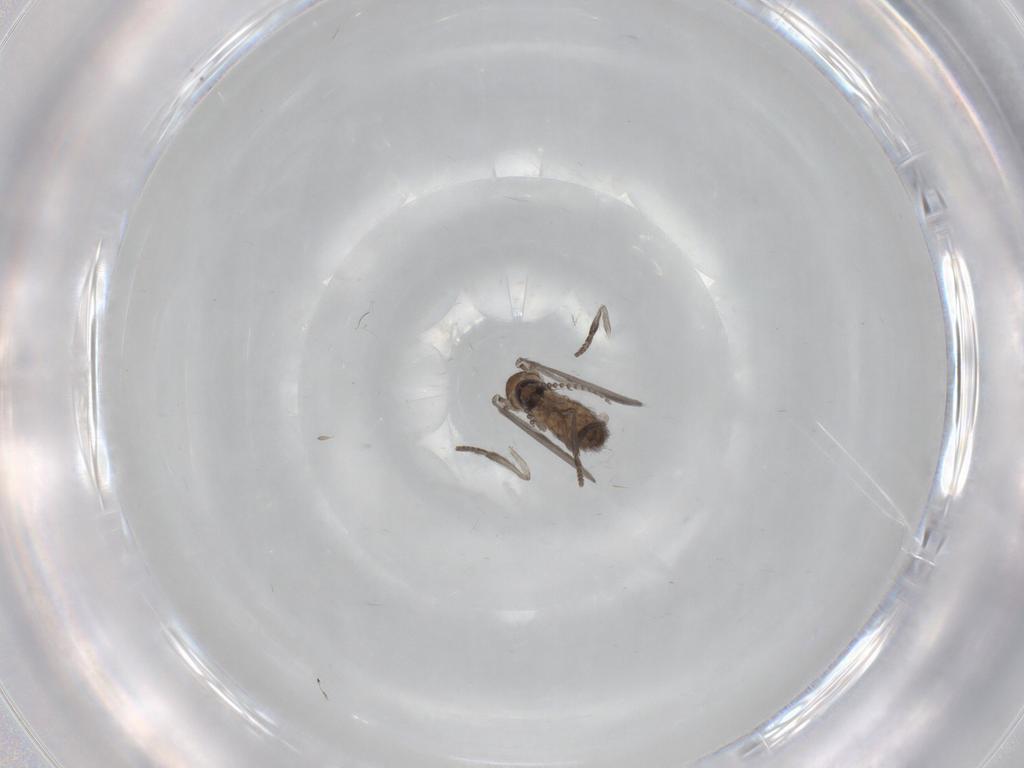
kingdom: Animalia
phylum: Arthropoda
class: Insecta
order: Diptera
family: Psychodidae
